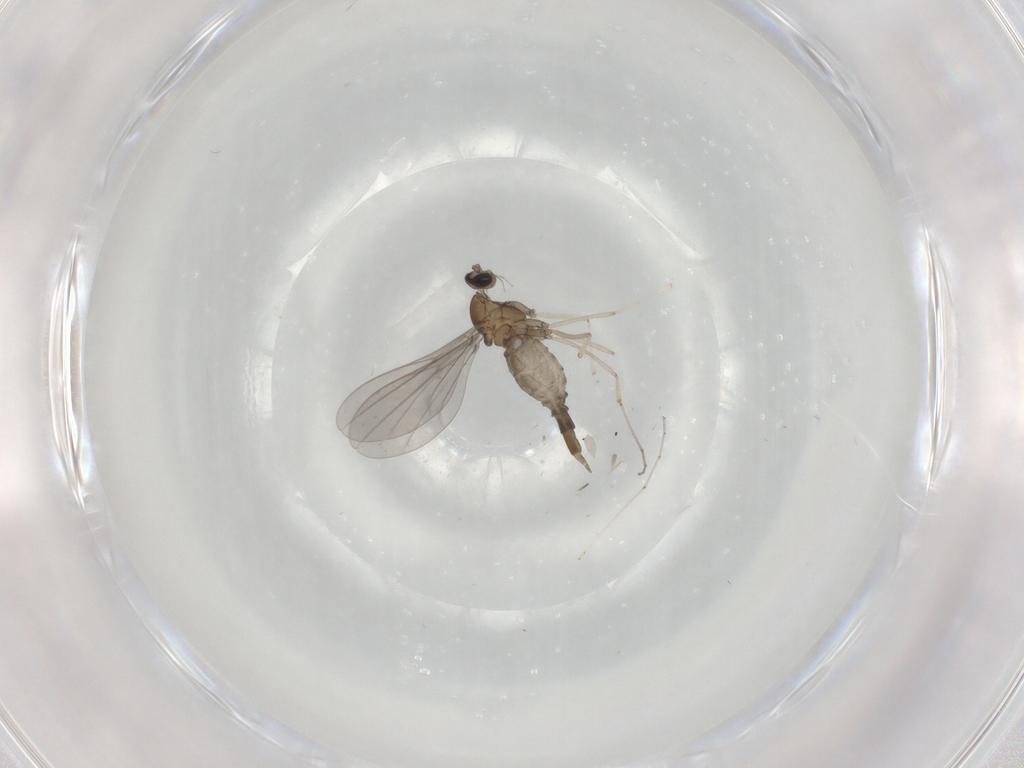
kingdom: Animalia
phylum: Arthropoda
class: Insecta
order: Diptera
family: Cecidomyiidae
